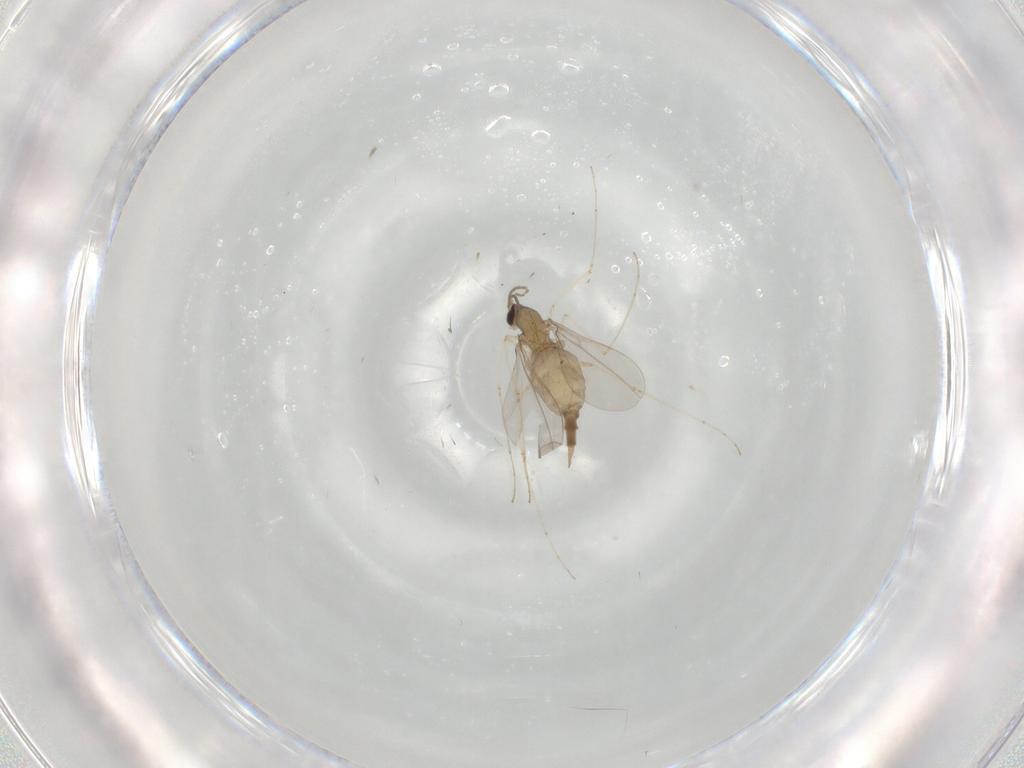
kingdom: Animalia
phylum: Arthropoda
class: Insecta
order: Diptera
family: Cecidomyiidae
